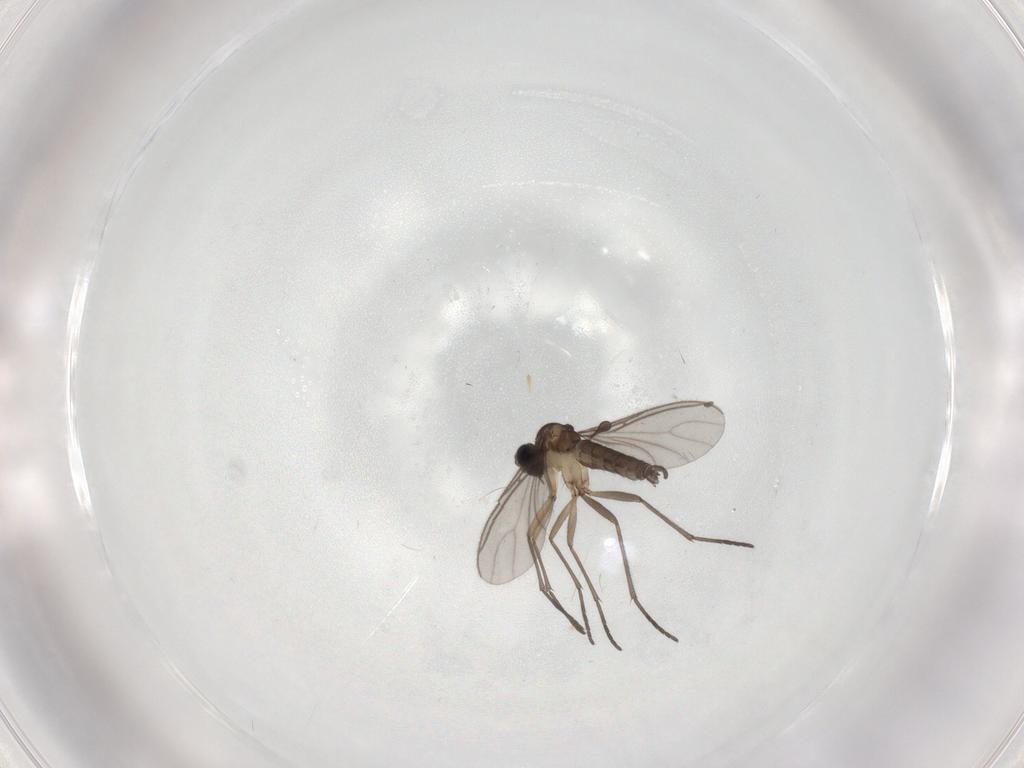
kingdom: Animalia
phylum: Arthropoda
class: Insecta
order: Diptera
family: Sciaridae
